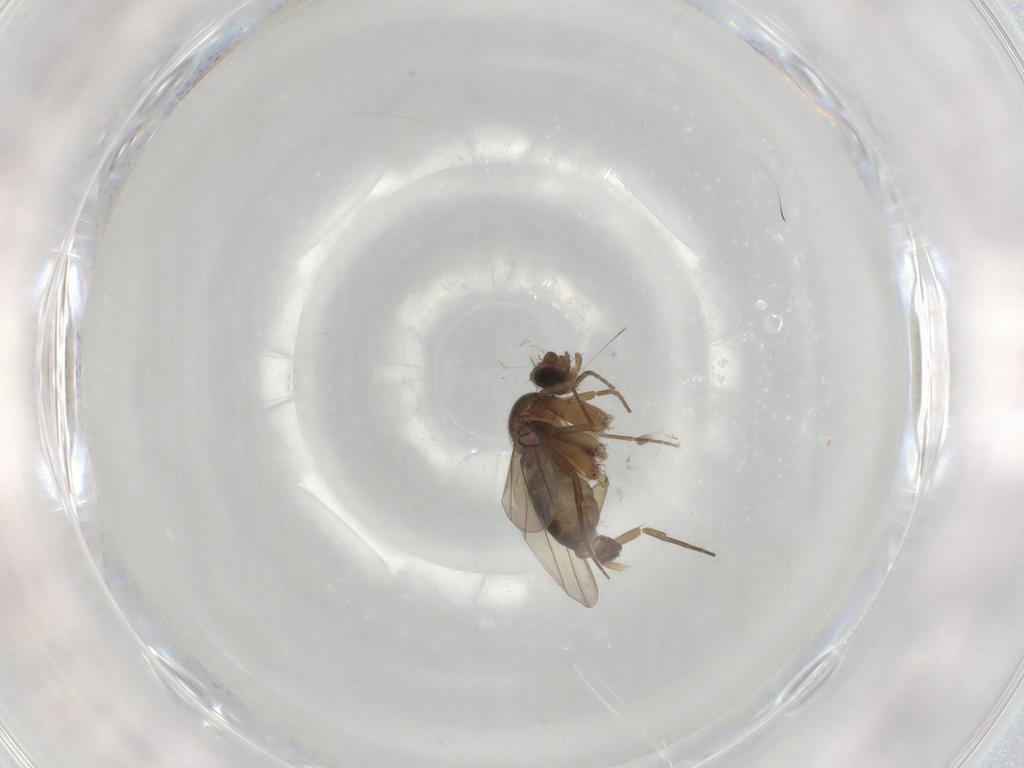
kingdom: Animalia
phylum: Arthropoda
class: Insecta
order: Diptera
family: Phoridae
